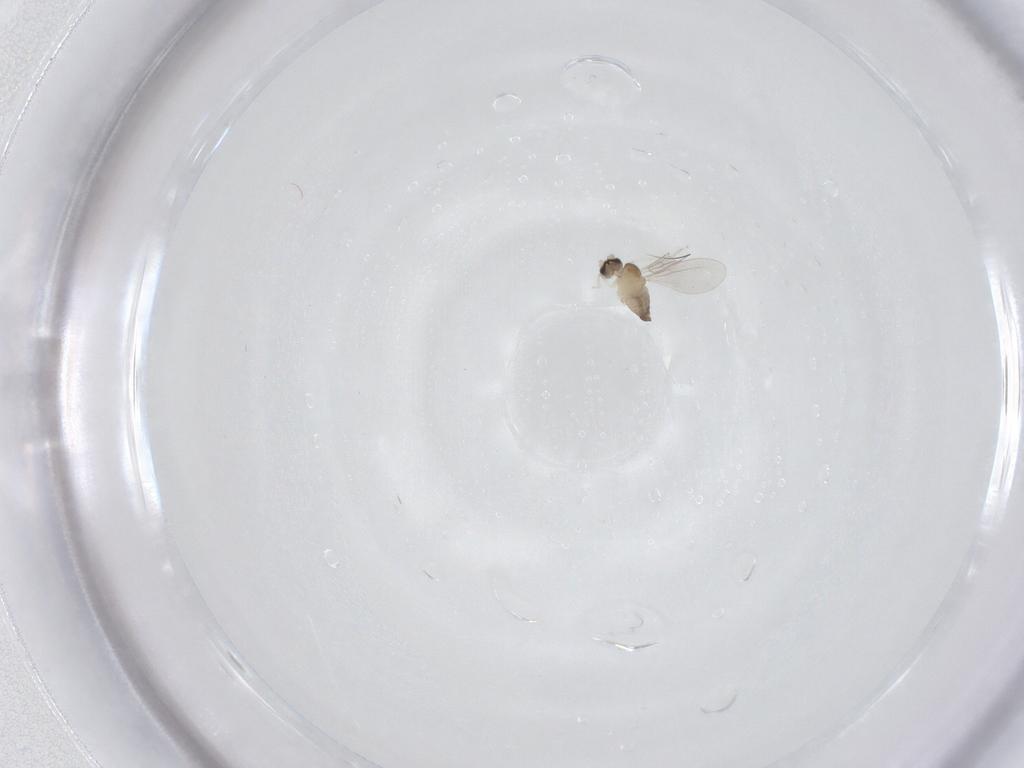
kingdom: Animalia
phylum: Arthropoda
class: Insecta
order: Diptera
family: Cecidomyiidae
